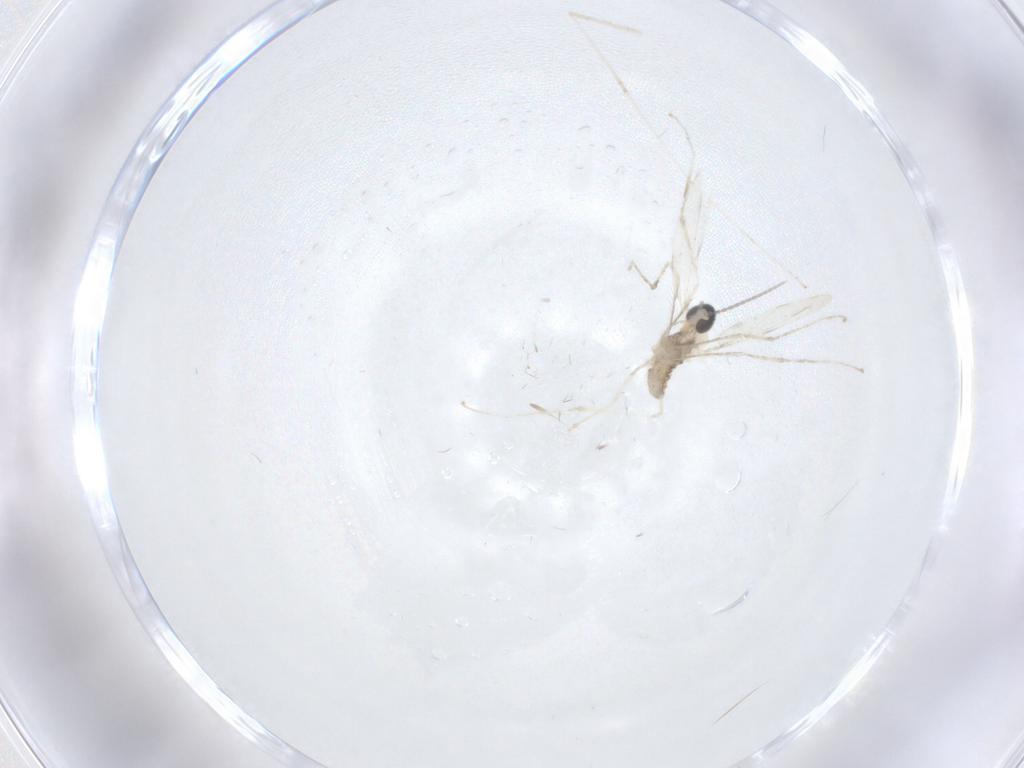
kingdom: Animalia
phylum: Arthropoda
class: Insecta
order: Diptera
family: Cecidomyiidae
